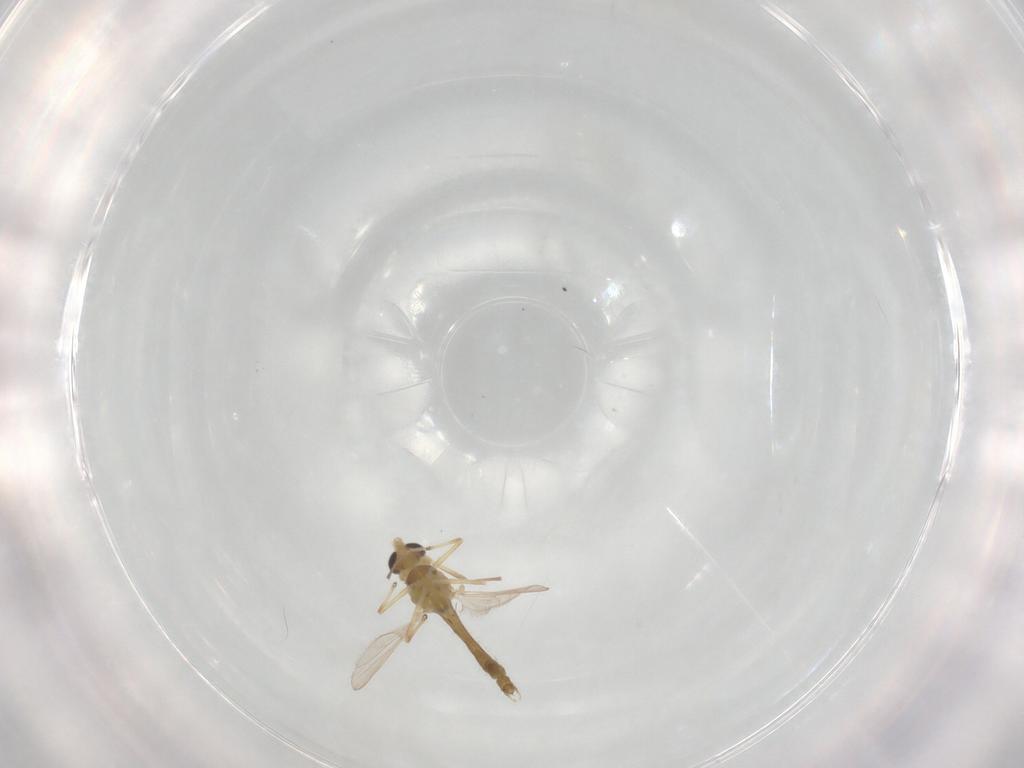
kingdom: Animalia
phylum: Arthropoda
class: Insecta
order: Diptera
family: Chironomidae
